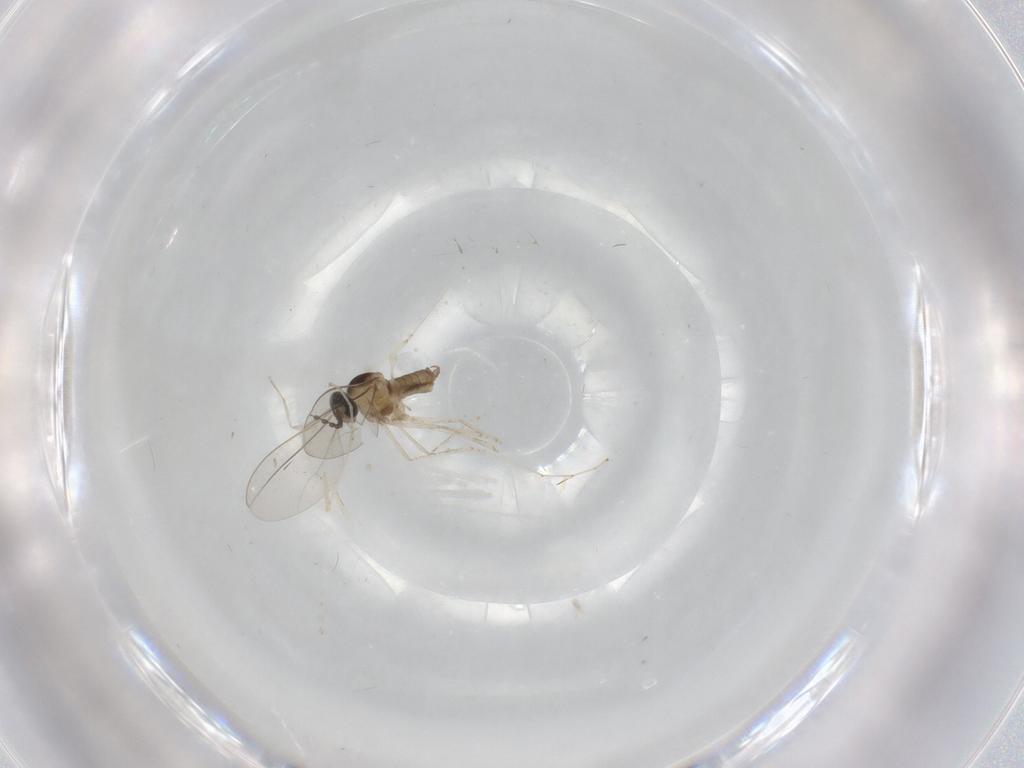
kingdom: Animalia
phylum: Arthropoda
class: Insecta
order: Diptera
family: Cecidomyiidae
